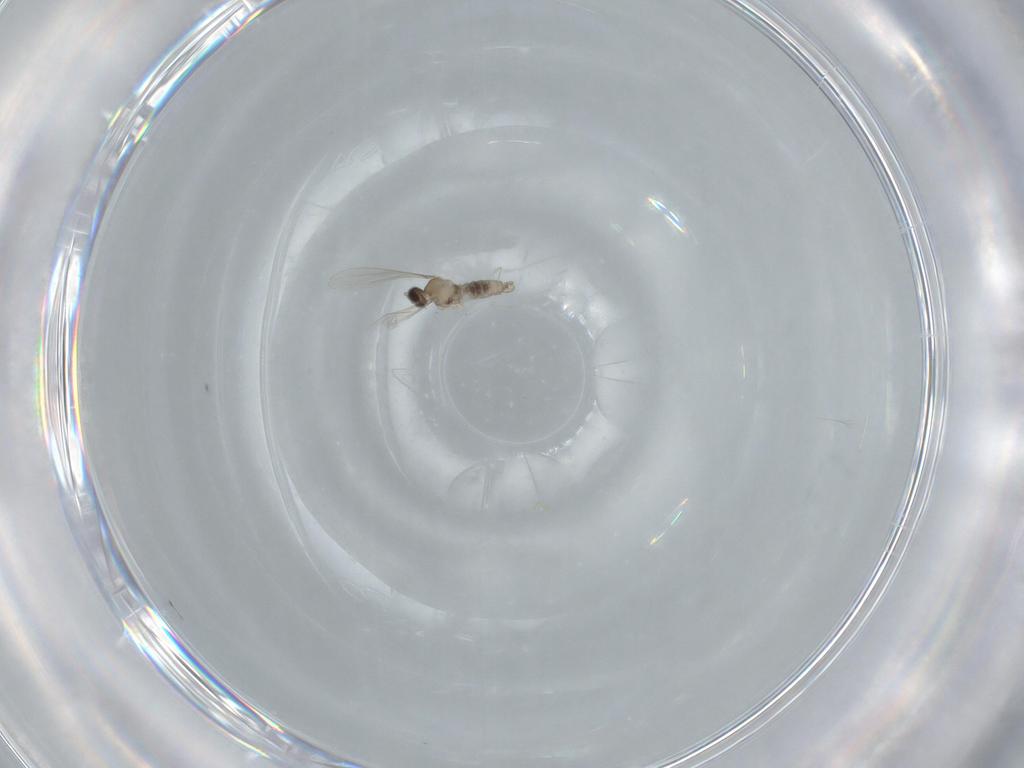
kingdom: Animalia
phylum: Arthropoda
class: Insecta
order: Diptera
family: Cecidomyiidae
